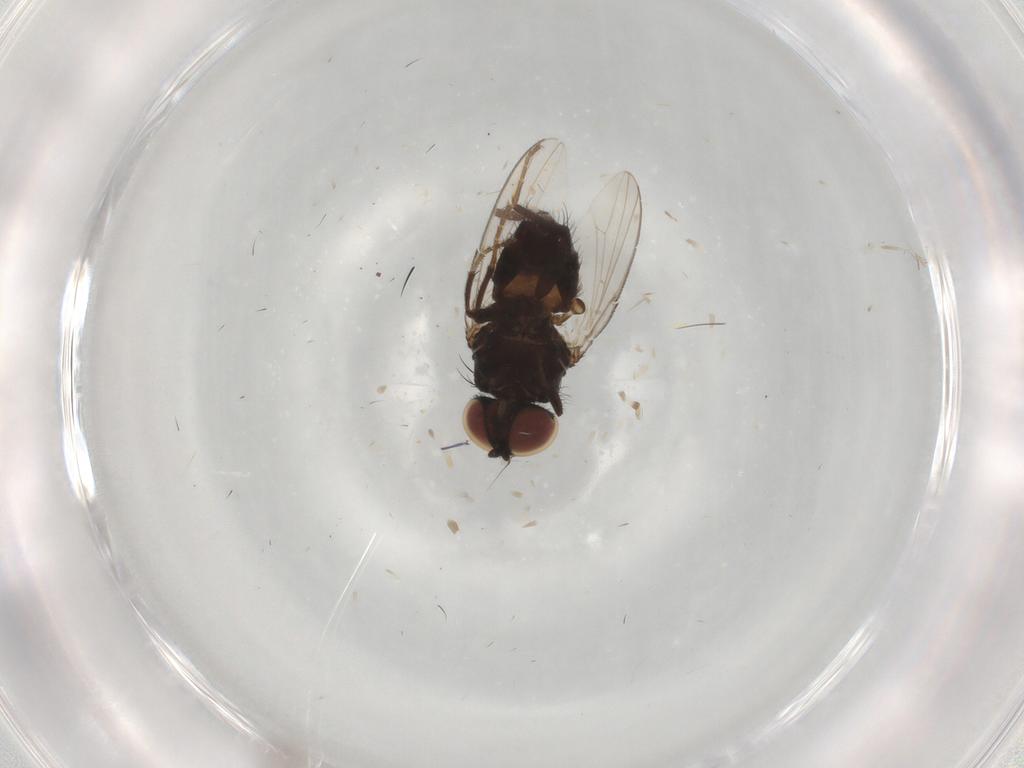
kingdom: Animalia
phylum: Arthropoda
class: Insecta
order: Diptera
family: Milichiidae
